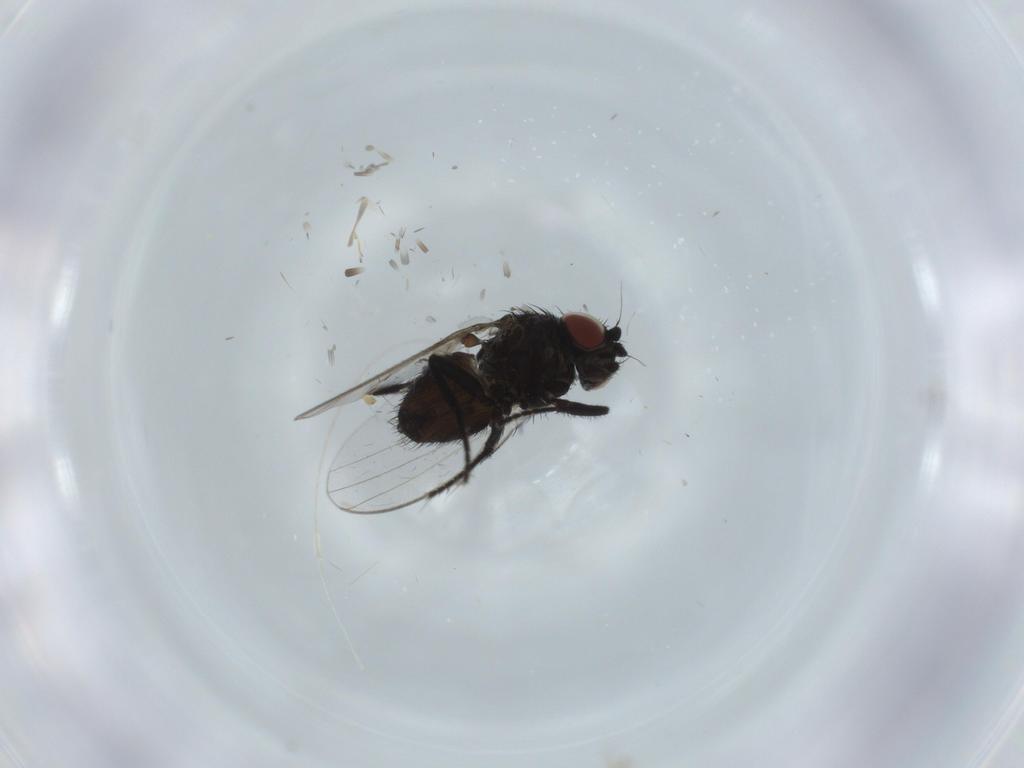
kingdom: Animalia
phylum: Arthropoda
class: Insecta
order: Diptera
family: Milichiidae
